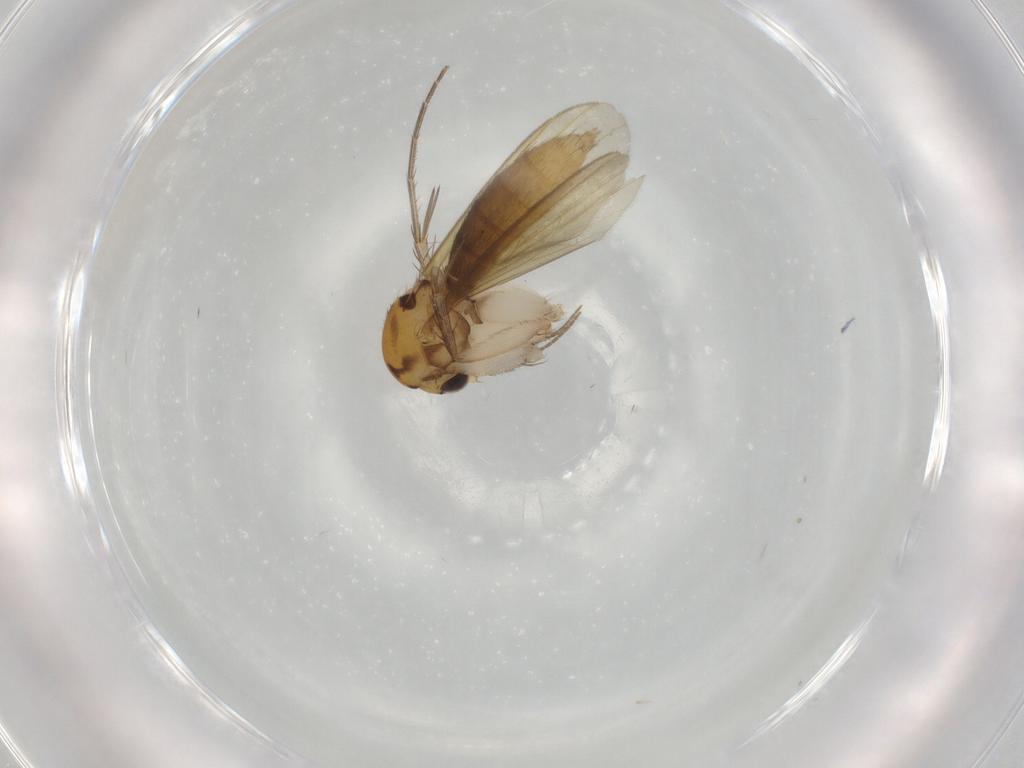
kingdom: Animalia
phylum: Arthropoda
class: Insecta
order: Diptera
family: Mycetophilidae
